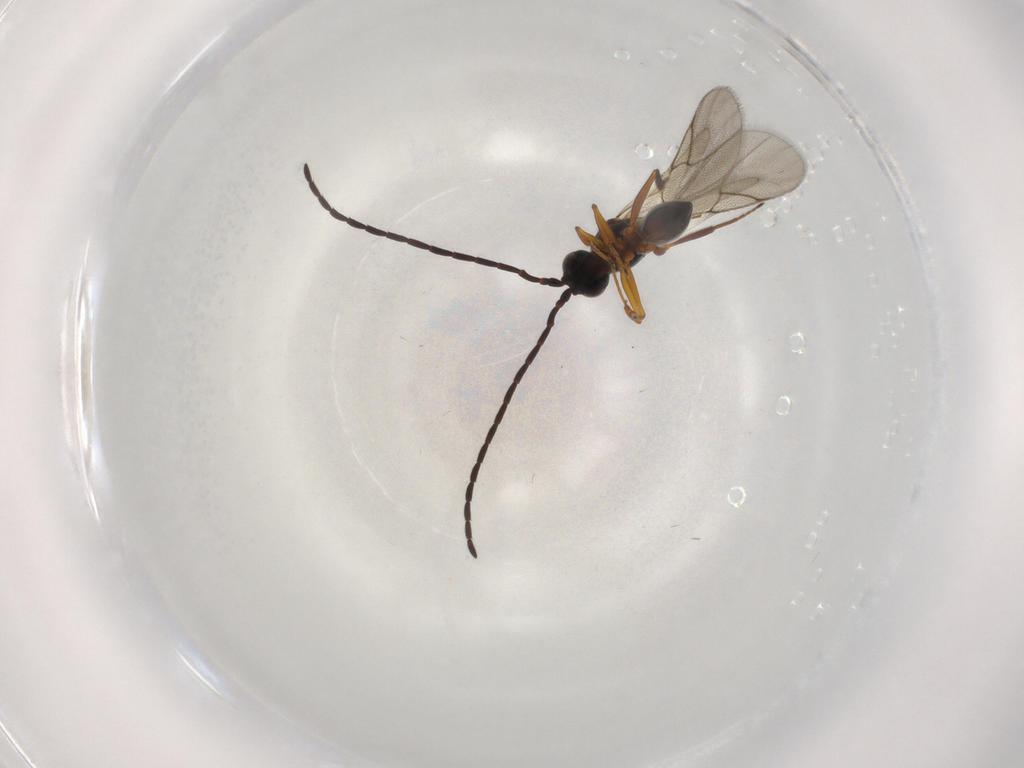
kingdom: Animalia
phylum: Arthropoda
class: Insecta
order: Hymenoptera
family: Figitidae
